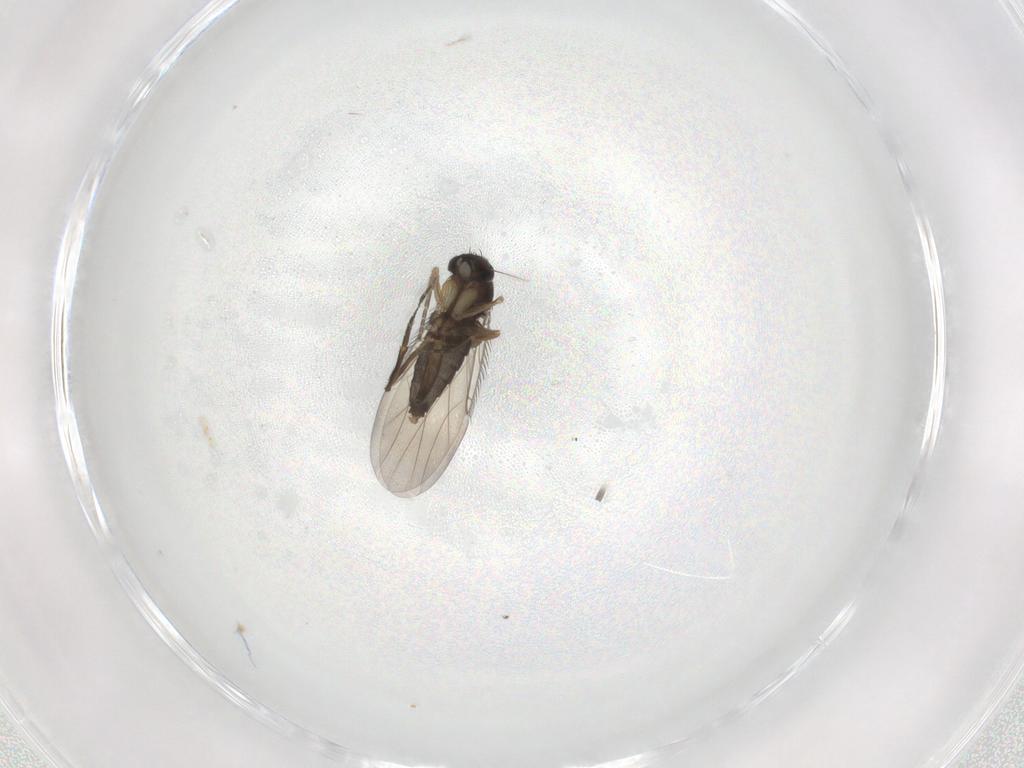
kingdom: Animalia
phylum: Arthropoda
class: Insecta
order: Diptera
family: Phoridae
